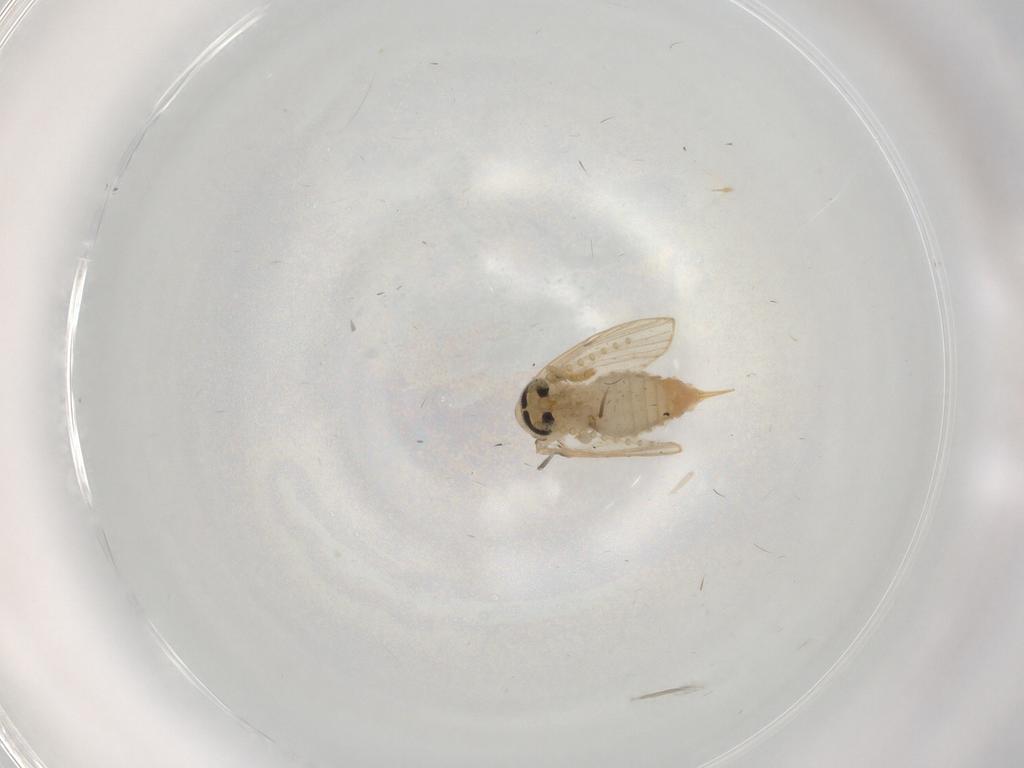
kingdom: Animalia
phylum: Arthropoda
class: Insecta
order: Diptera
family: Psychodidae
